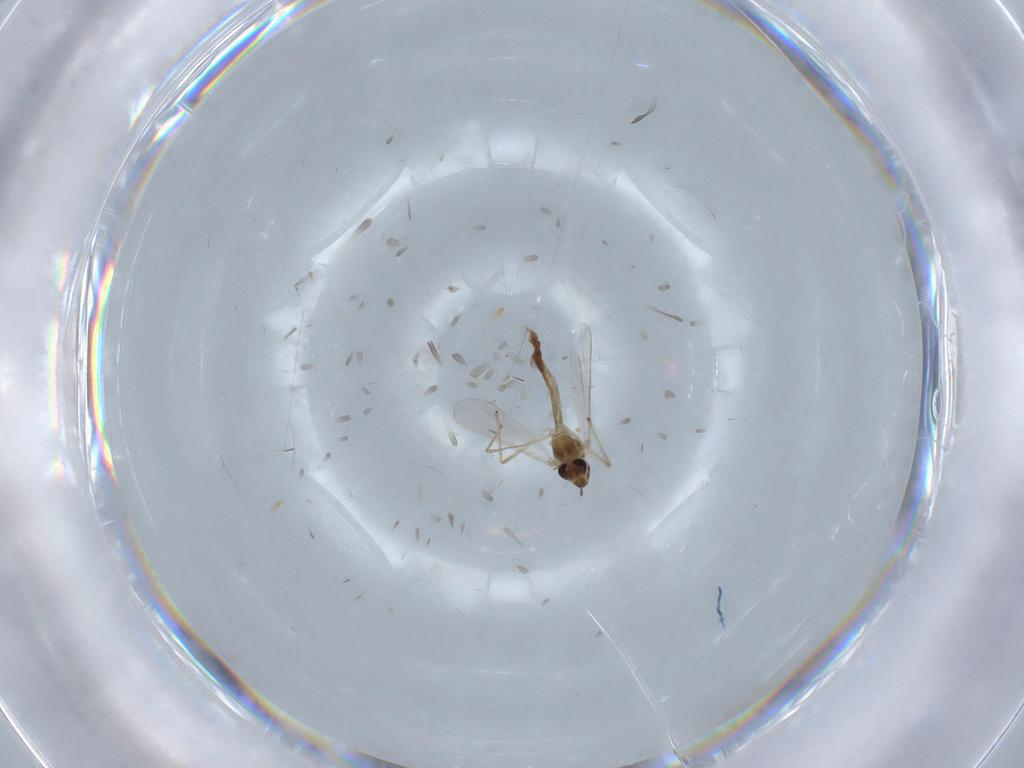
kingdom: Animalia
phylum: Arthropoda
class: Insecta
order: Diptera
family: Chironomidae
